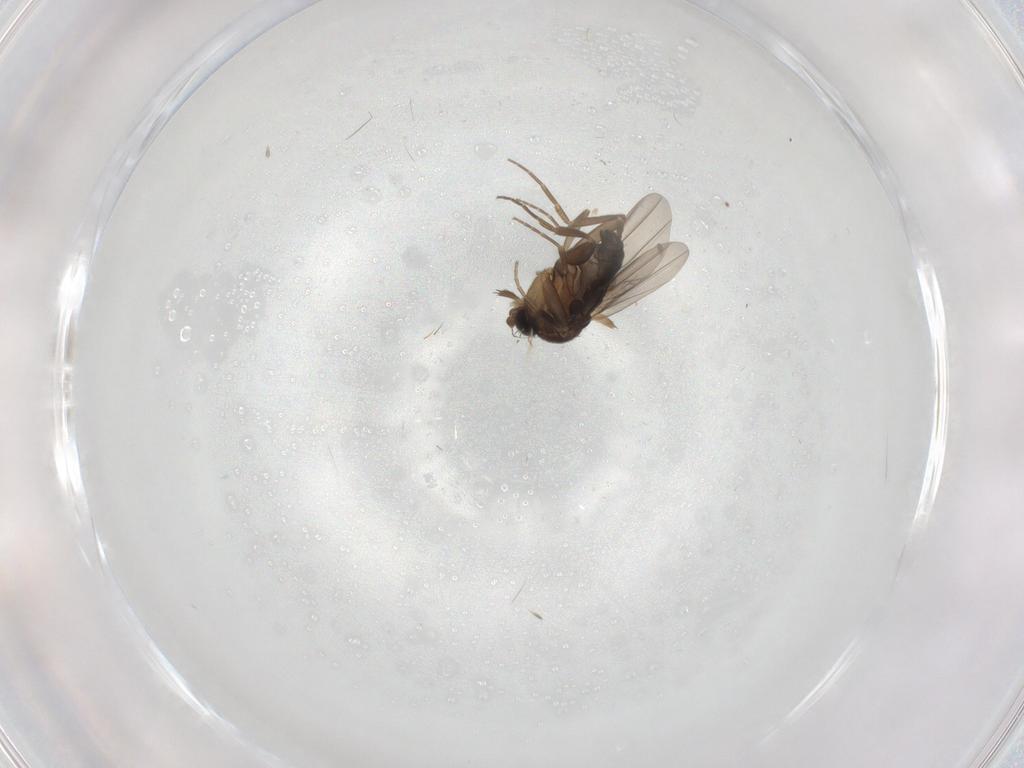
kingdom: Animalia
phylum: Arthropoda
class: Insecta
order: Diptera
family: Phoridae
